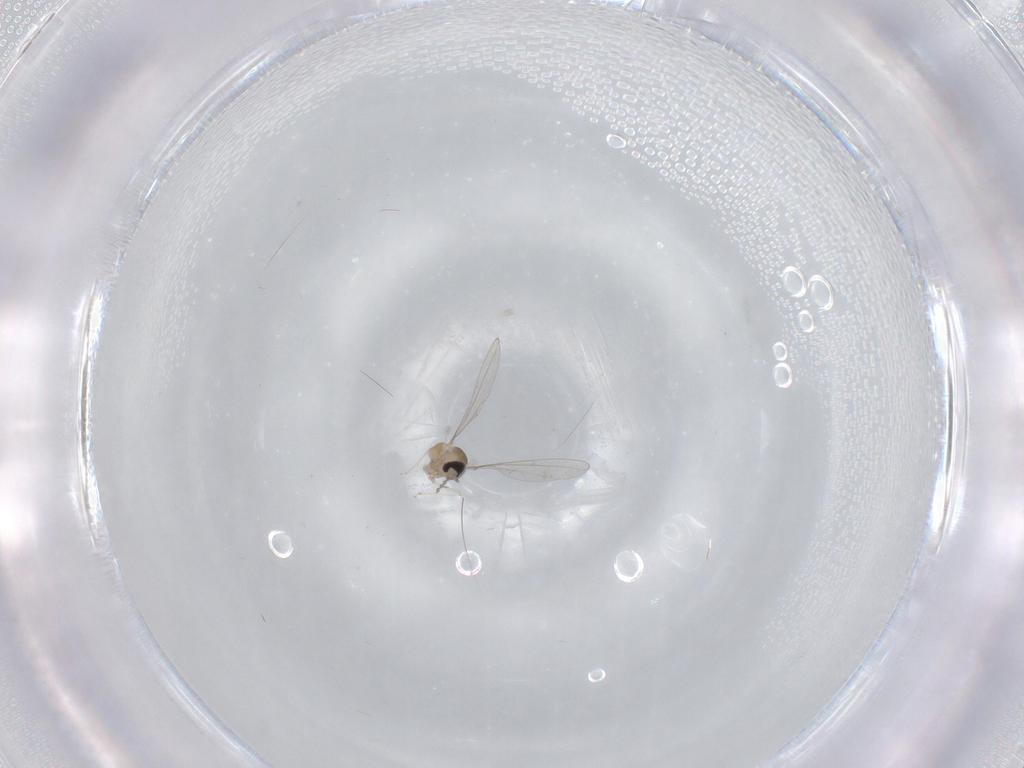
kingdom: Animalia
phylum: Arthropoda
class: Insecta
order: Diptera
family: Cecidomyiidae
